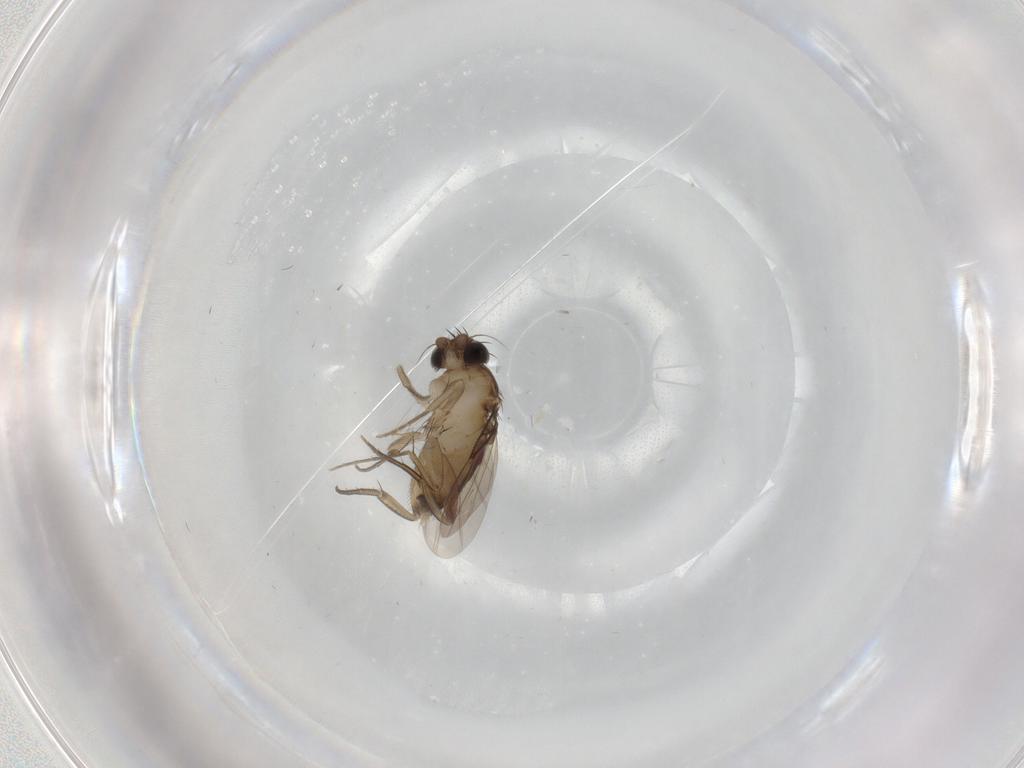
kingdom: Animalia
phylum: Arthropoda
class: Insecta
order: Diptera
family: Phoridae
